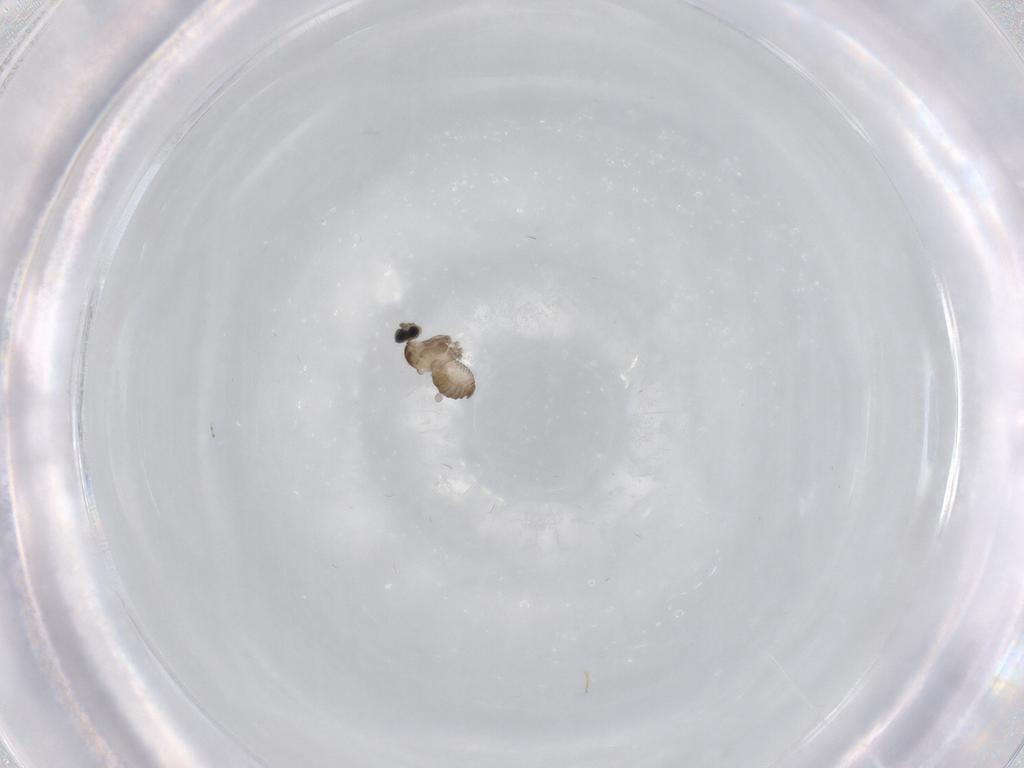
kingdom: Animalia
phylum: Arthropoda
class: Insecta
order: Diptera
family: Cecidomyiidae
